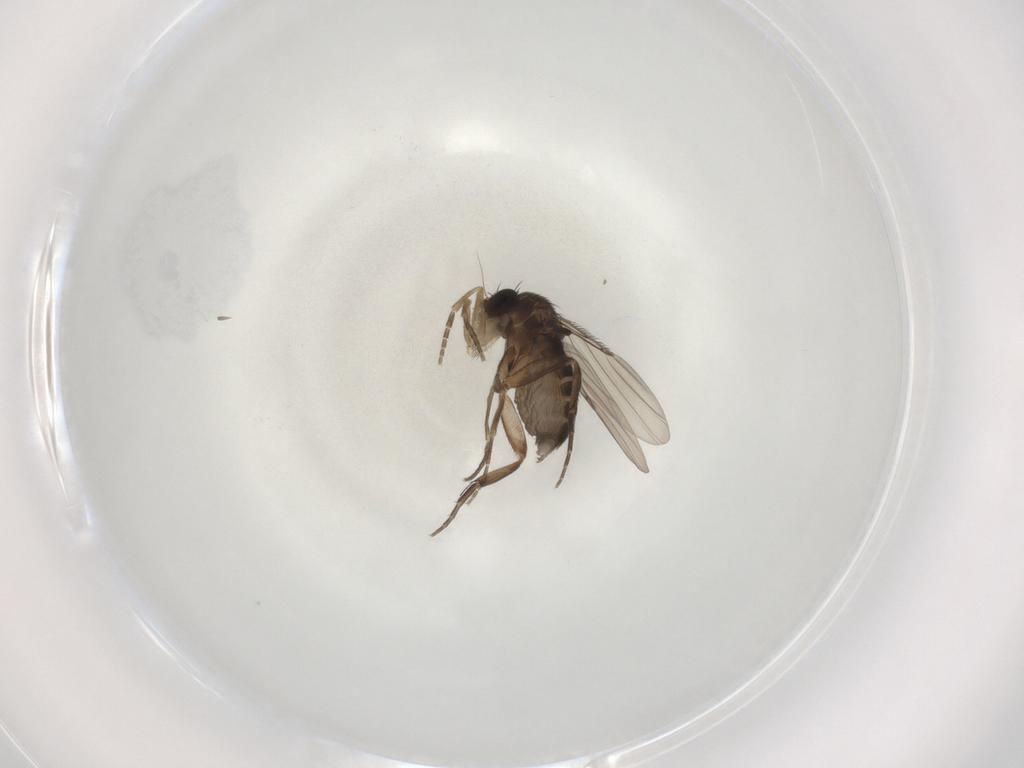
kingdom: Animalia
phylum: Arthropoda
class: Insecta
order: Diptera
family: Phoridae
